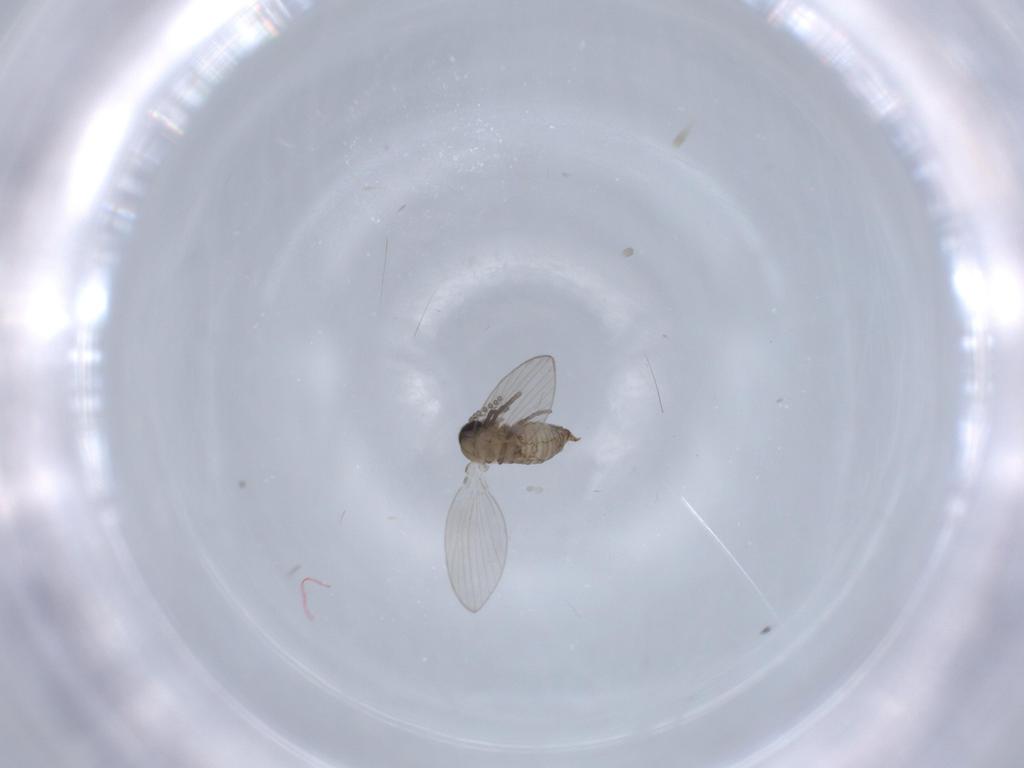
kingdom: Animalia
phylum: Arthropoda
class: Insecta
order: Diptera
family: Psychodidae
